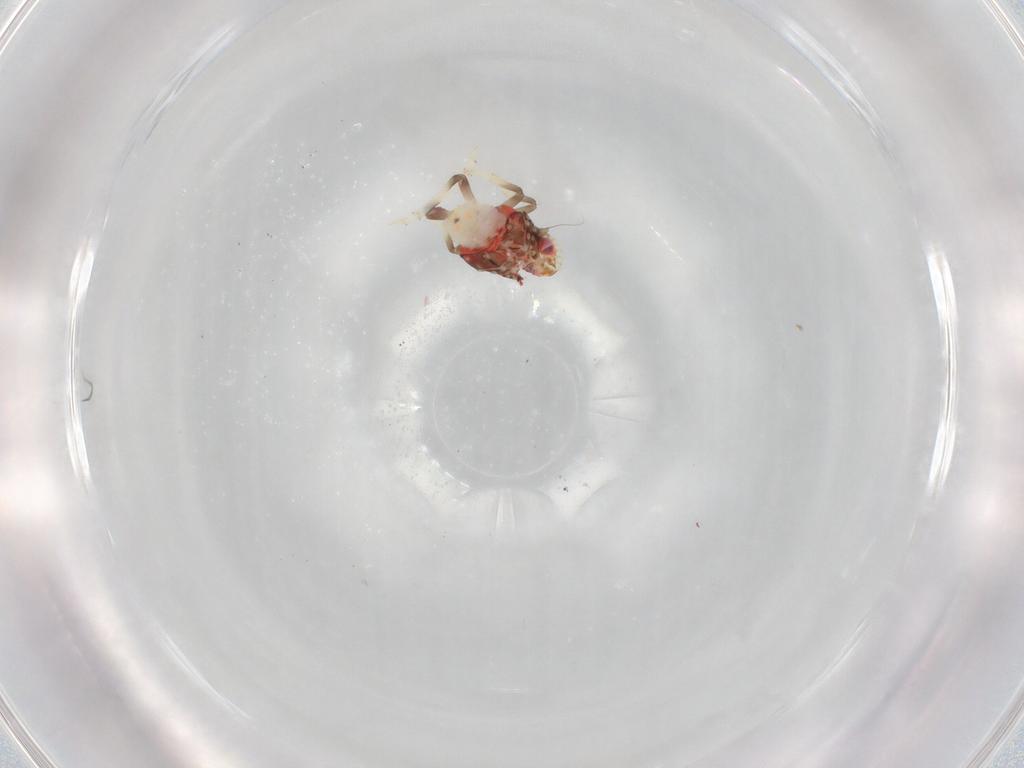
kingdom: Animalia
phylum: Arthropoda
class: Insecta
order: Hemiptera
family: Tropiduchidae
